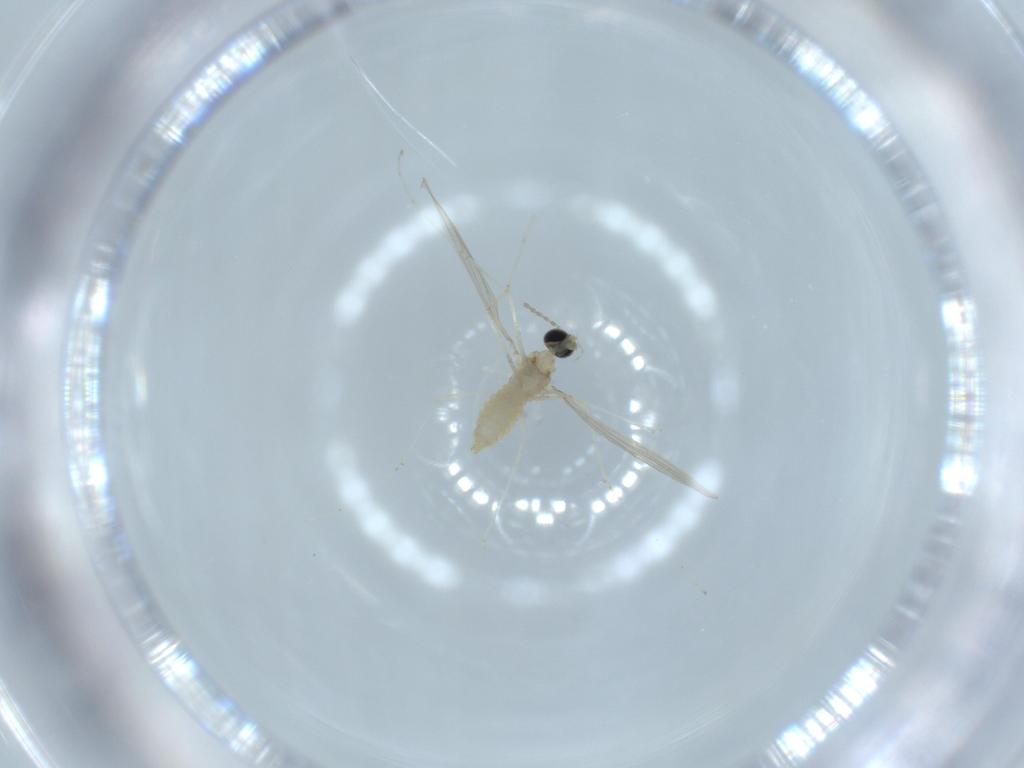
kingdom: Animalia
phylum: Arthropoda
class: Insecta
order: Diptera
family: Cecidomyiidae
